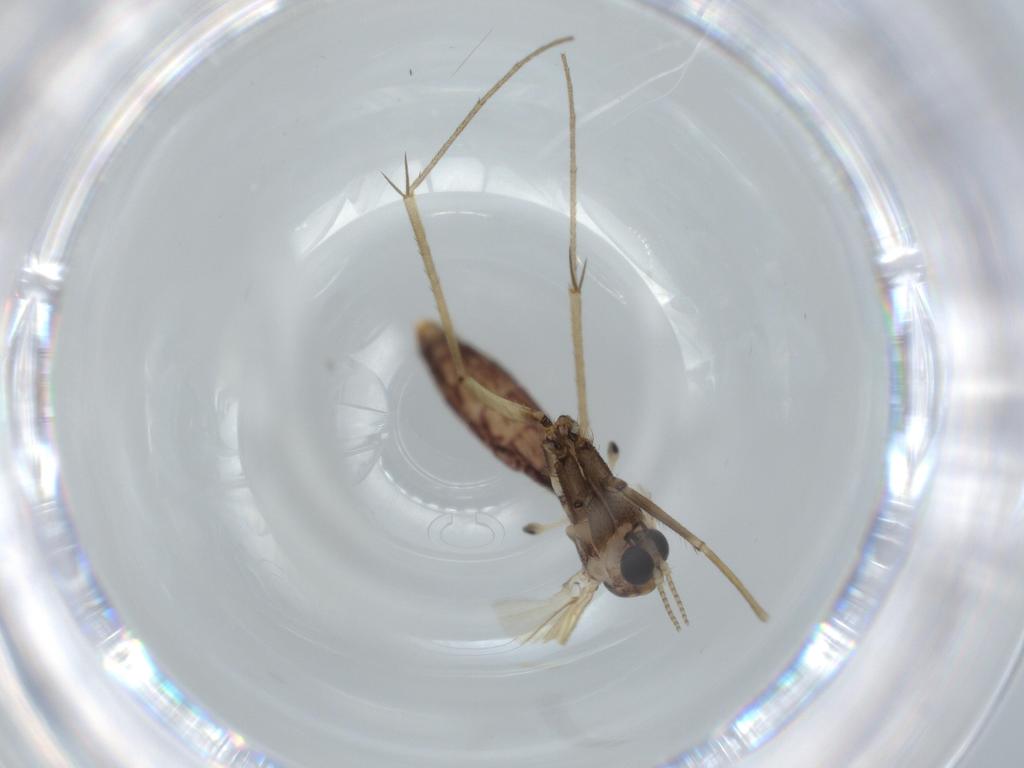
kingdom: Animalia
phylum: Arthropoda
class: Insecta
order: Diptera
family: Mycetophilidae
